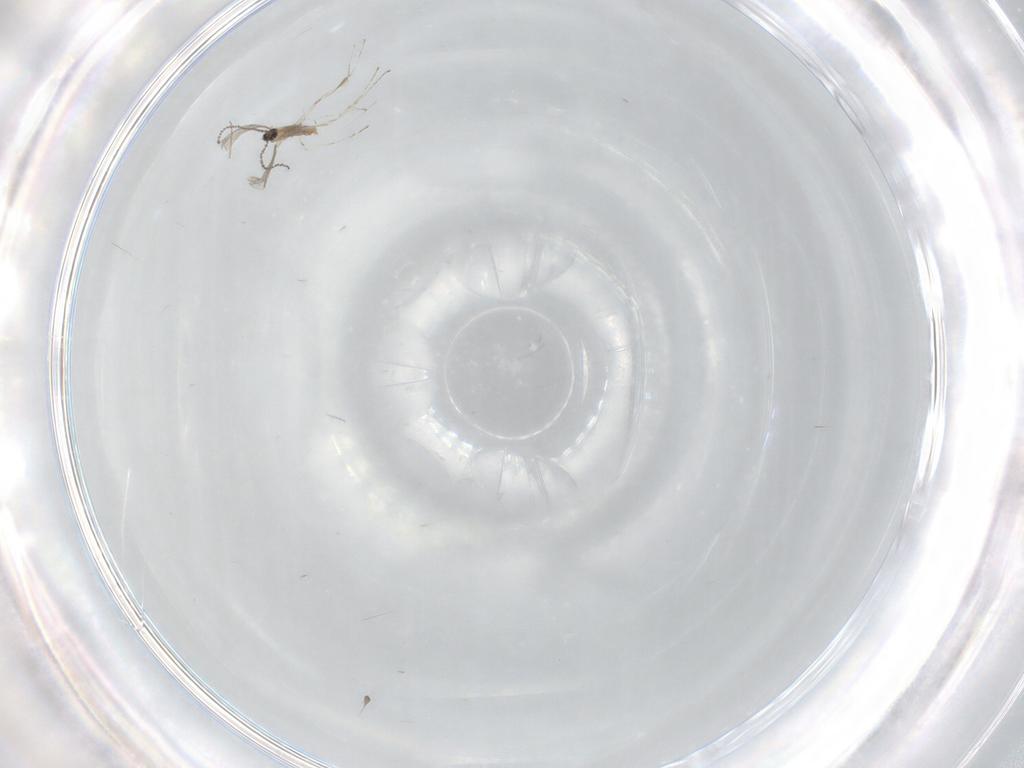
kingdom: Animalia
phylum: Arthropoda
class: Insecta
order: Diptera
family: Cecidomyiidae
